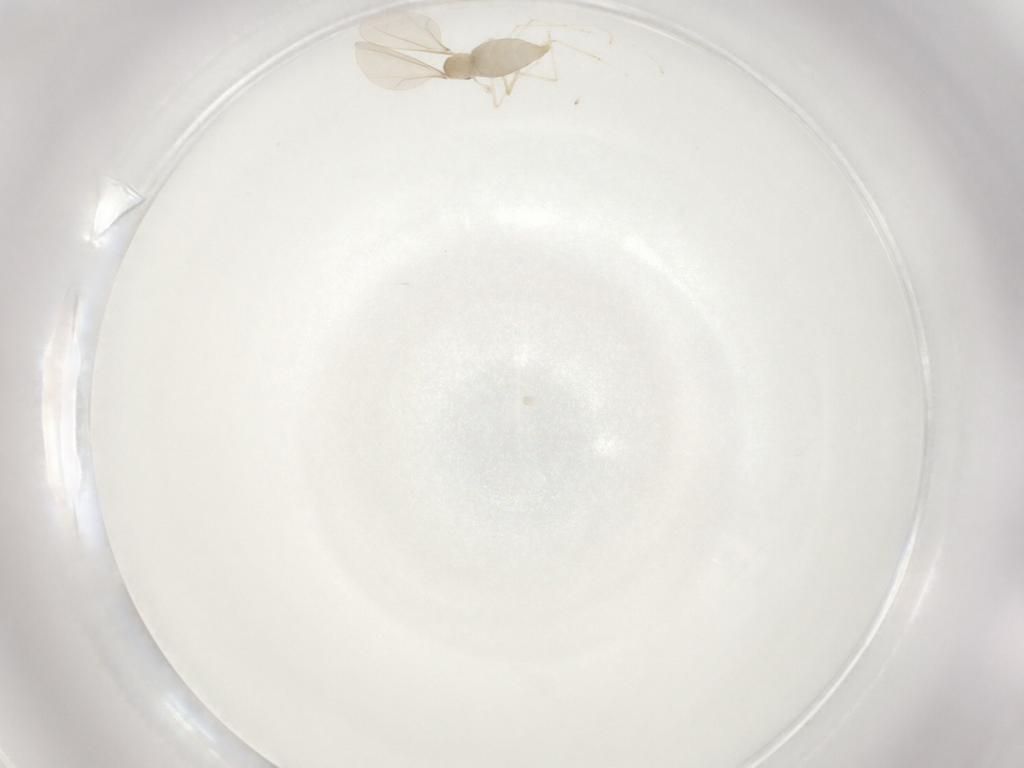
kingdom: Animalia
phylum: Arthropoda
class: Insecta
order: Diptera
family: Cecidomyiidae
